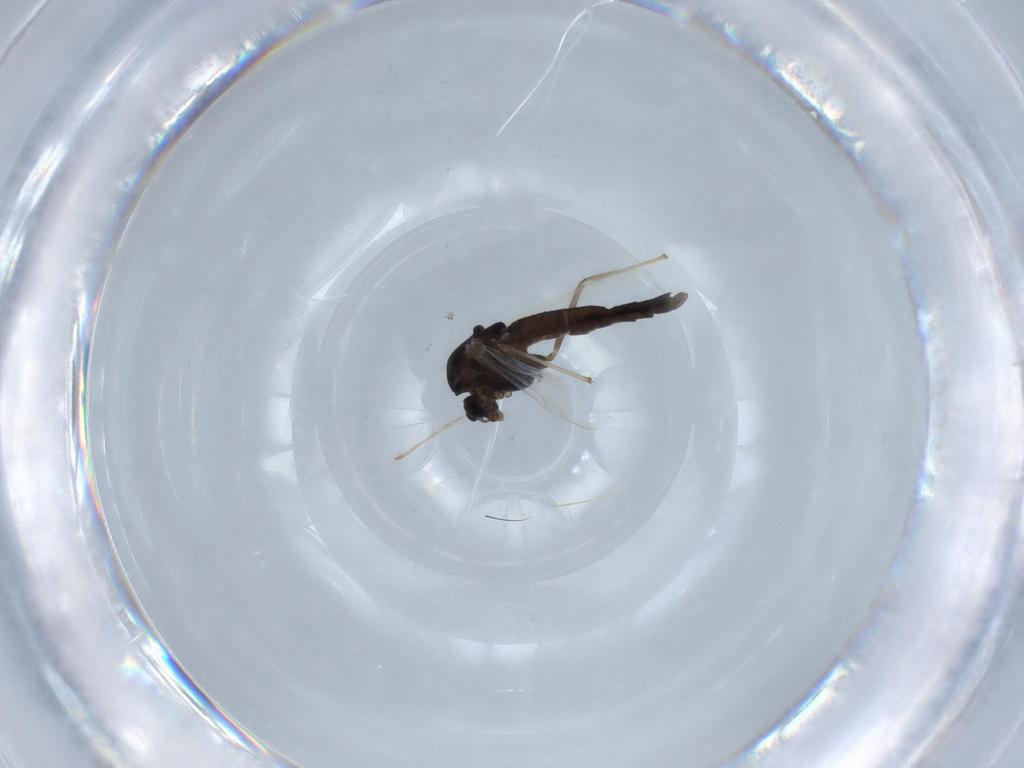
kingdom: Animalia
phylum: Arthropoda
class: Insecta
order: Diptera
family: Chironomidae
